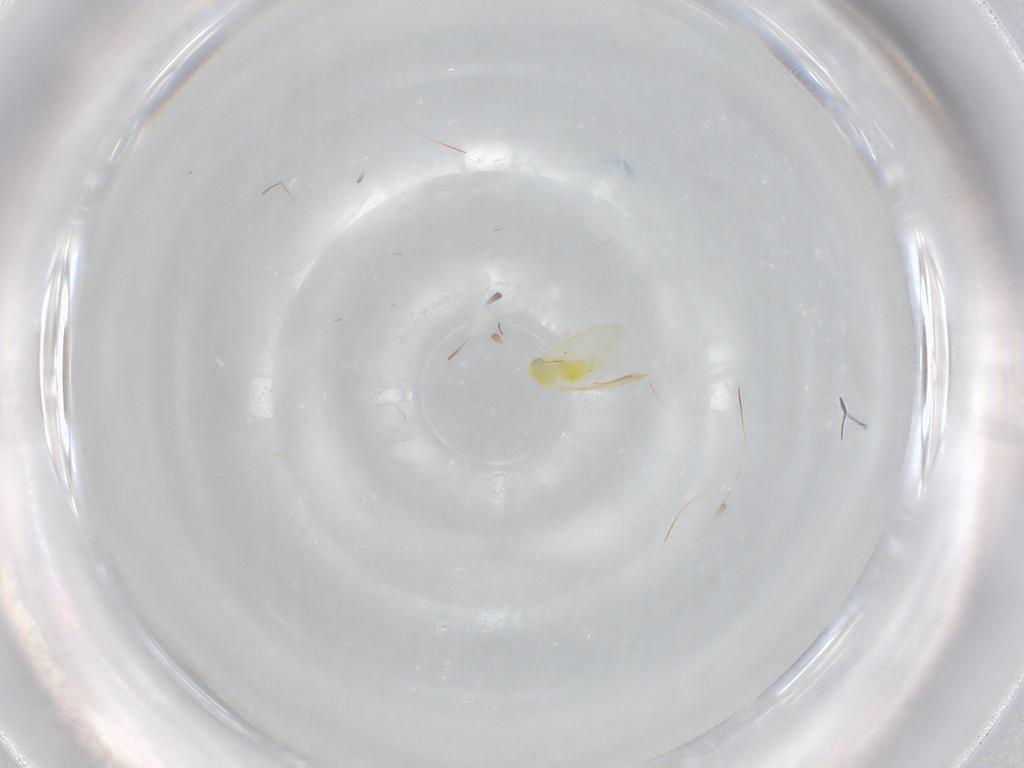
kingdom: Animalia
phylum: Arthropoda
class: Insecta
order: Hemiptera
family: Aleyrodidae
